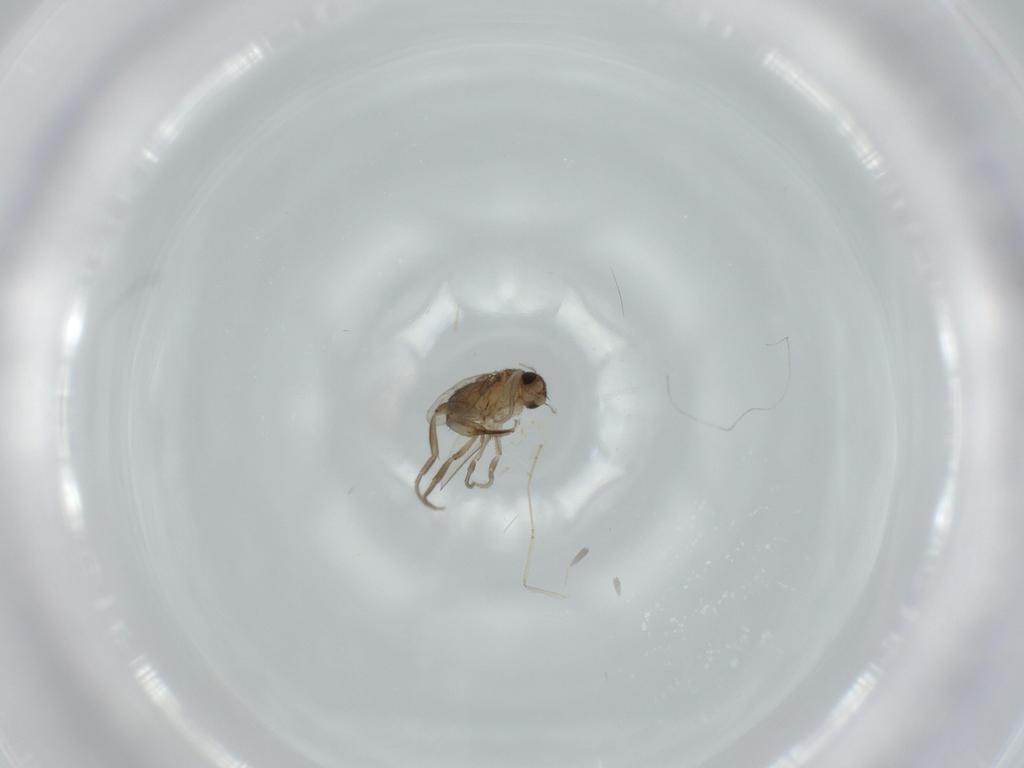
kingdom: Animalia
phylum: Arthropoda
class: Insecta
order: Diptera
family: Phoridae
